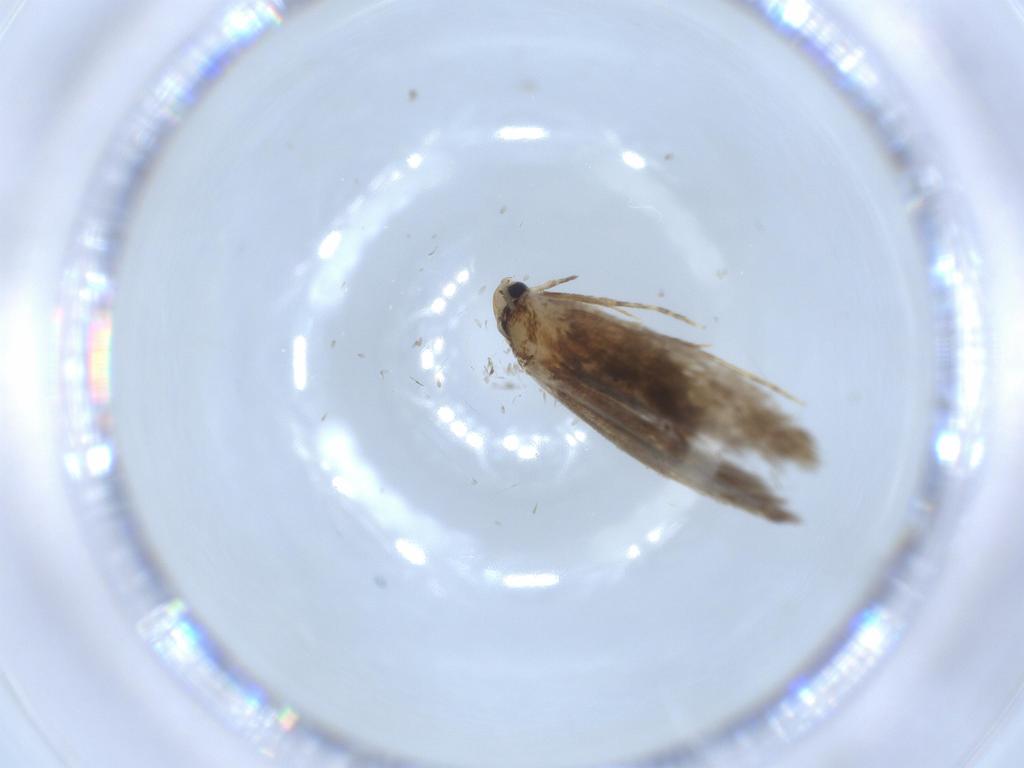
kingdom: Animalia
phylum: Arthropoda
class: Insecta
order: Lepidoptera
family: Tineidae
